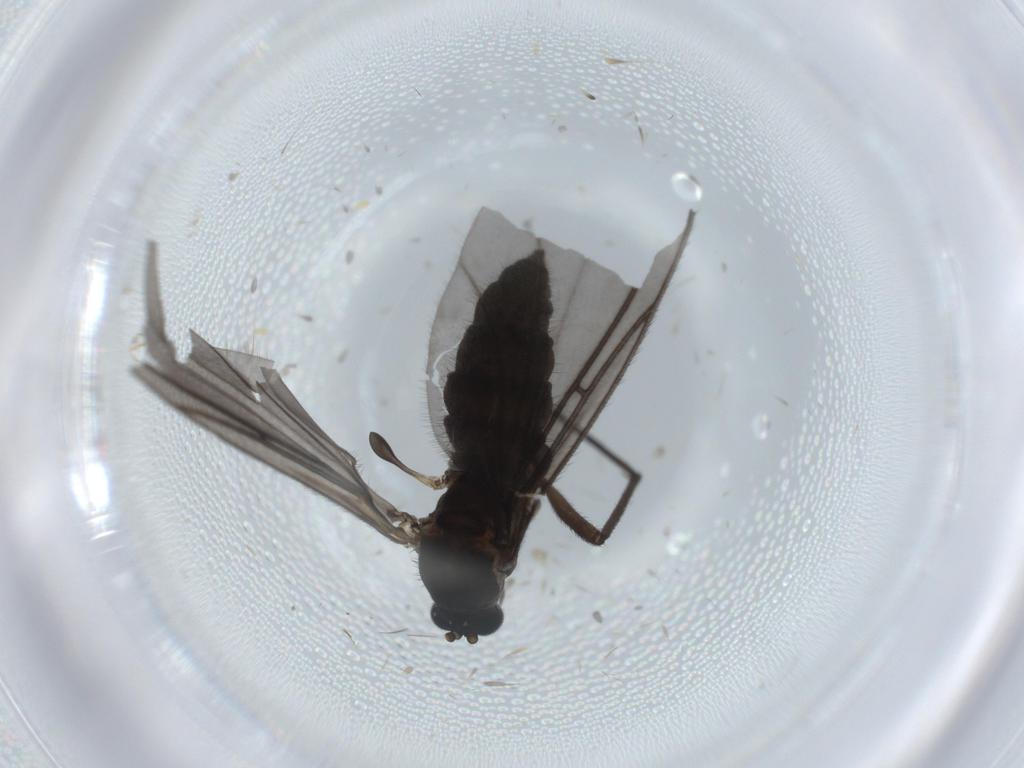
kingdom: Animalia
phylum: Arthropoda
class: Insecta
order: Diptera
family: Sciaridae
